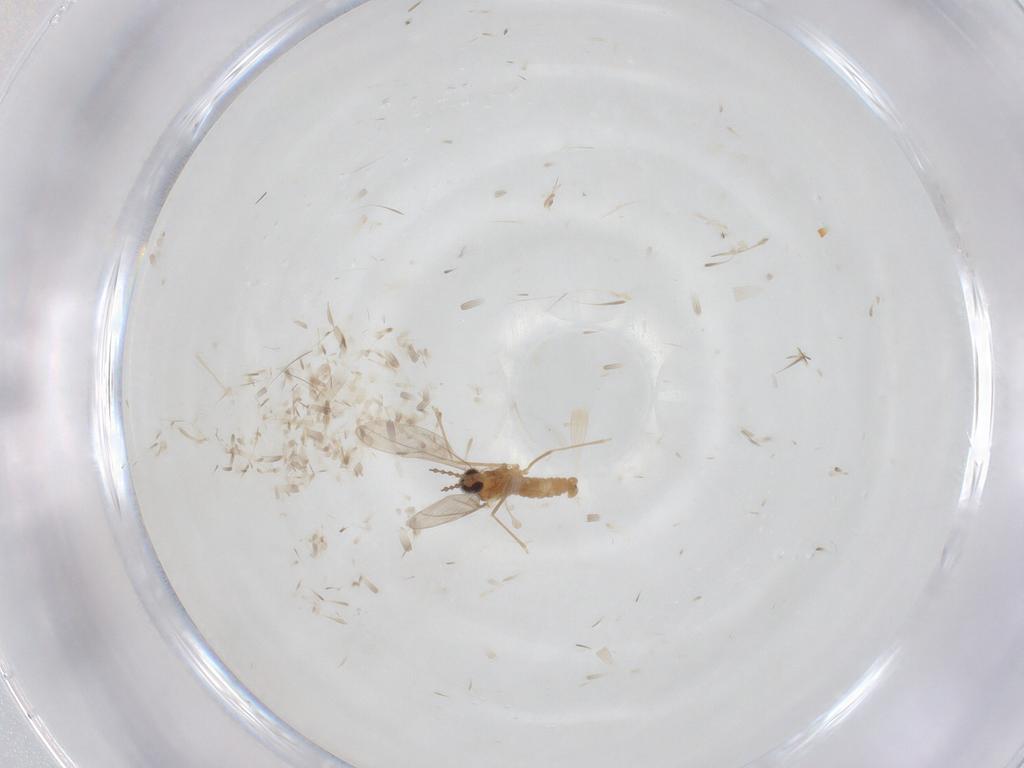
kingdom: Animalia
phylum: Arthropoda
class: Insecta
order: Diptera
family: Cecidomyiidae
